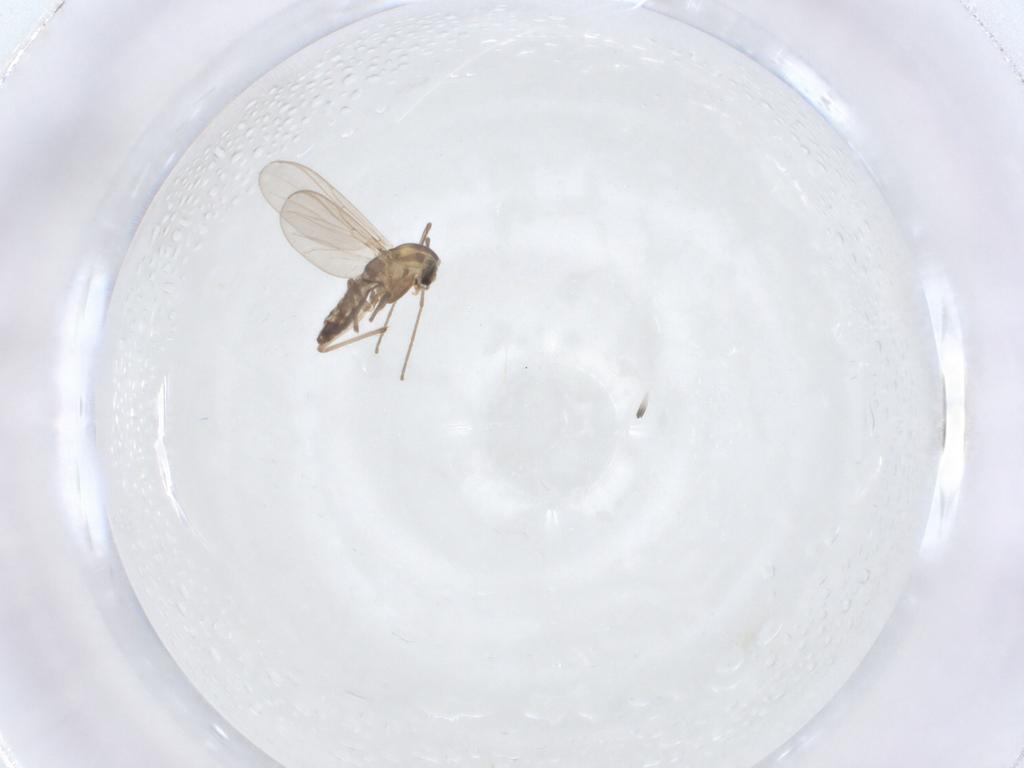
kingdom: Animalia
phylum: Arthropoda
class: Insecta
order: Diptera
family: Chironomidae
